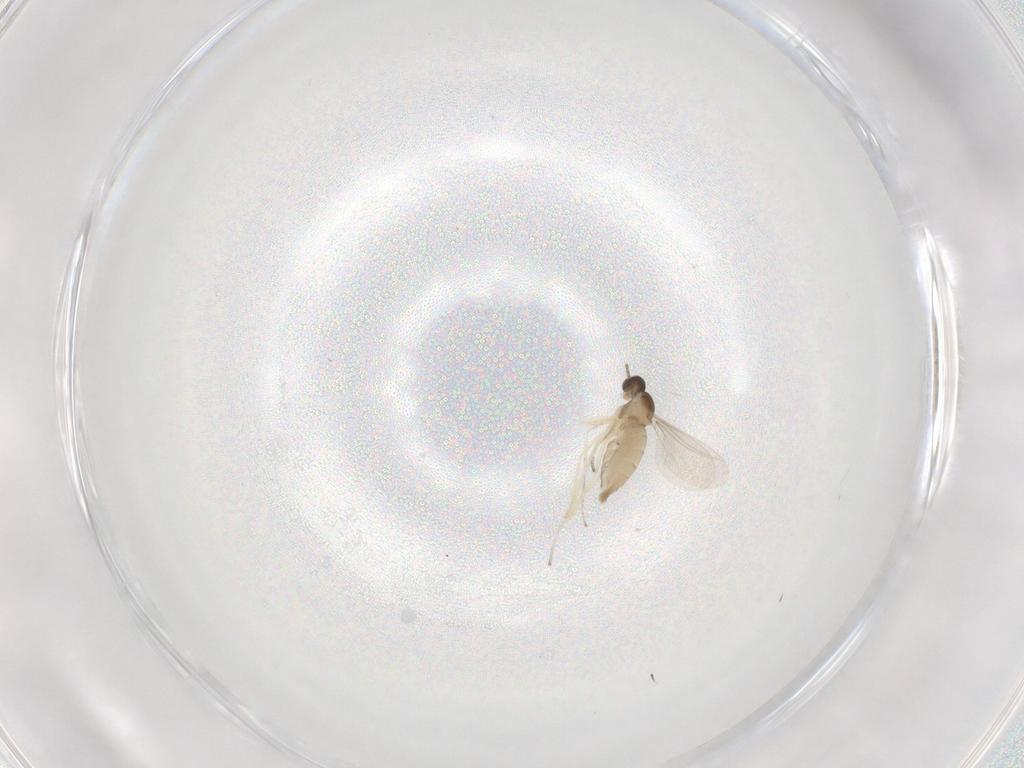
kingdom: Animalia
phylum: Arthropoda
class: Insecta
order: Diptera
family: Cecidomyiidae
